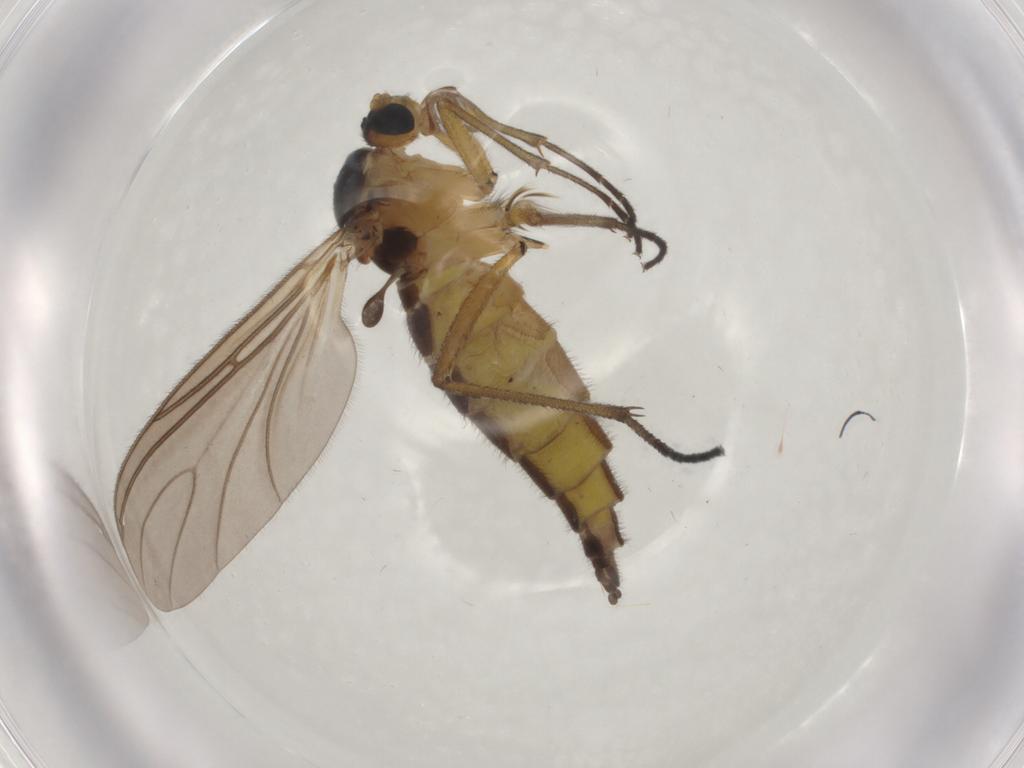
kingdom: Animalia
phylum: Arthropoda
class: Insecta
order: Diptera
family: Sciaridae
